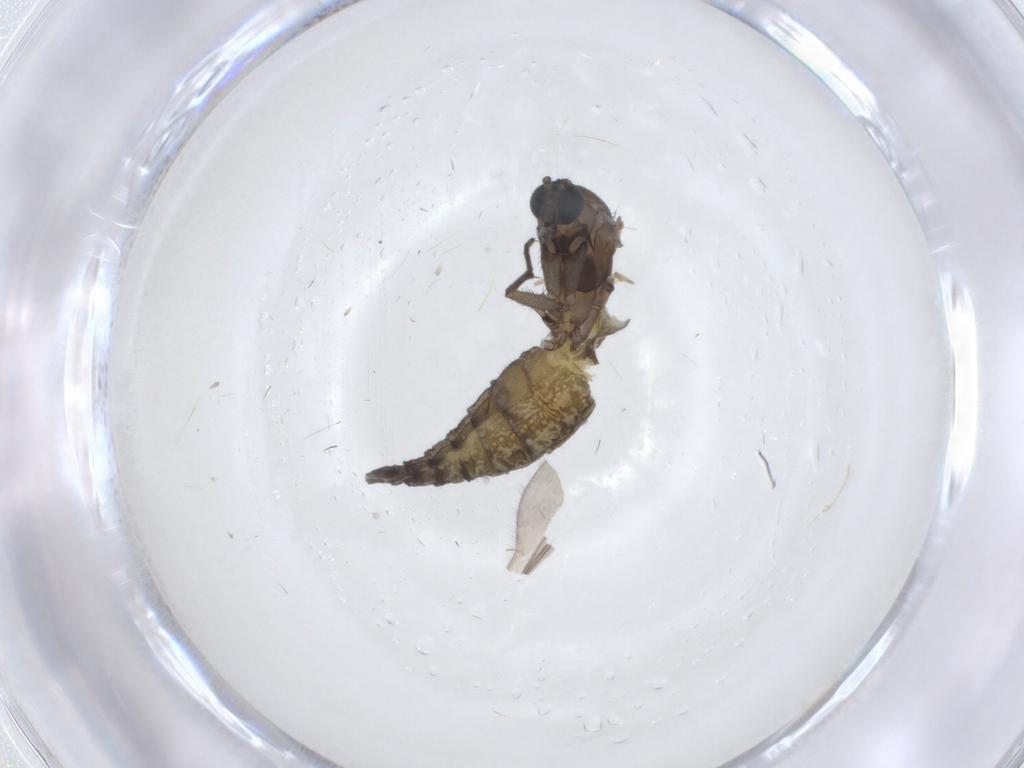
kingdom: Animalia
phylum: Arthropoda
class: Insecta
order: Diptera
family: Sciaridae
